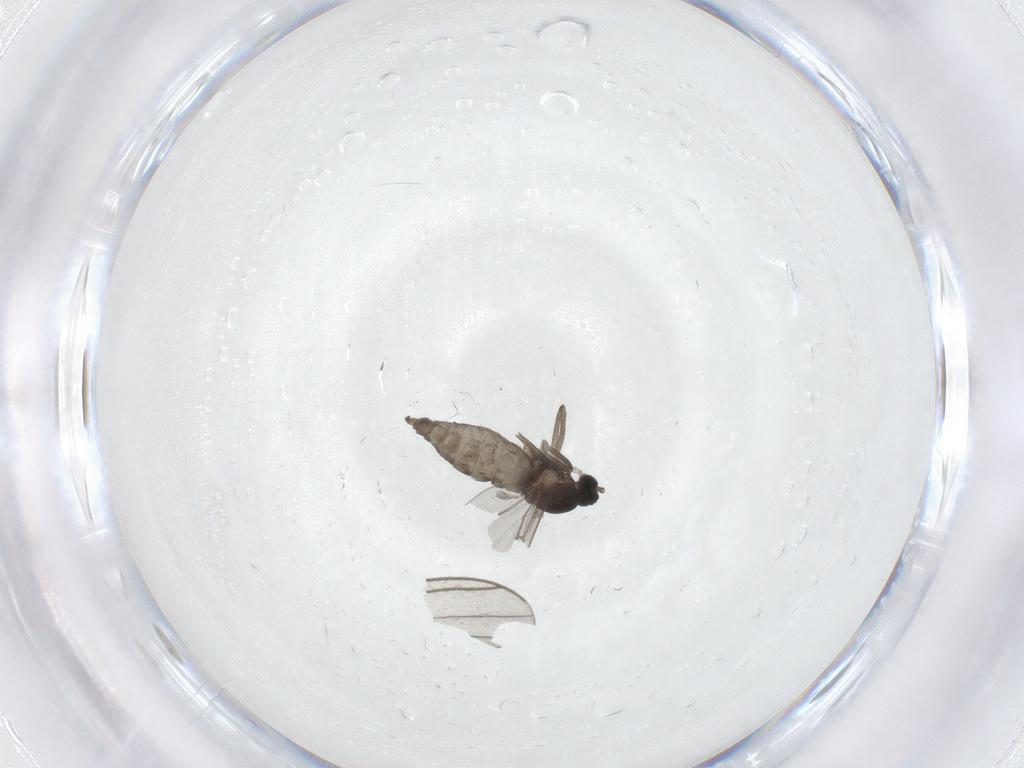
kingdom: Animalia
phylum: Arthropoda
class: Insecta
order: Diptera
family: Cecidomyiidae
